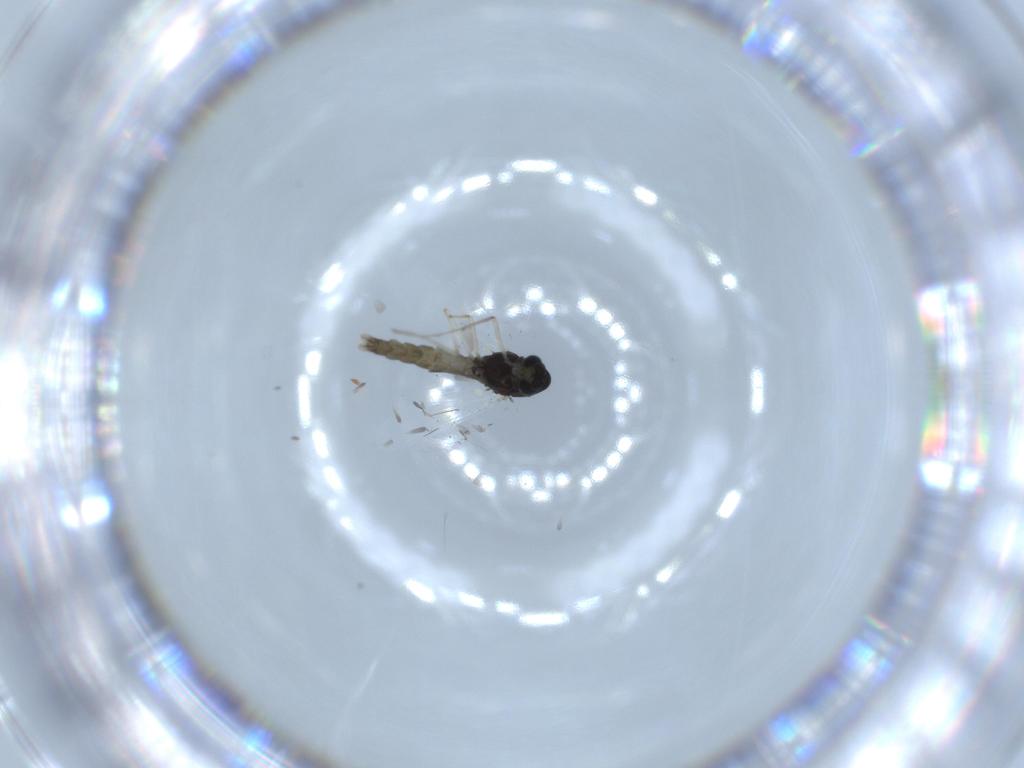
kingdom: Animalia
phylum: Arthropoda
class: Insecta
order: Diptera
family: Chironomidae
